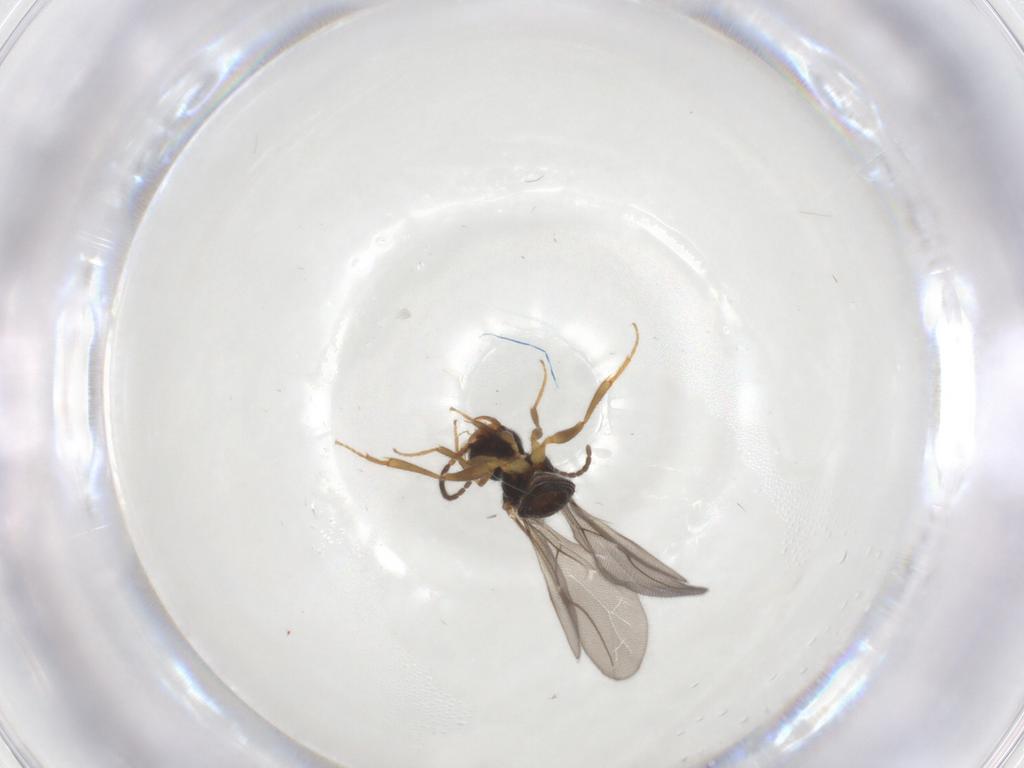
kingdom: Animalia
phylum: Arthropoda
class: Insecta
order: Hymenoptera
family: Bethylidae
